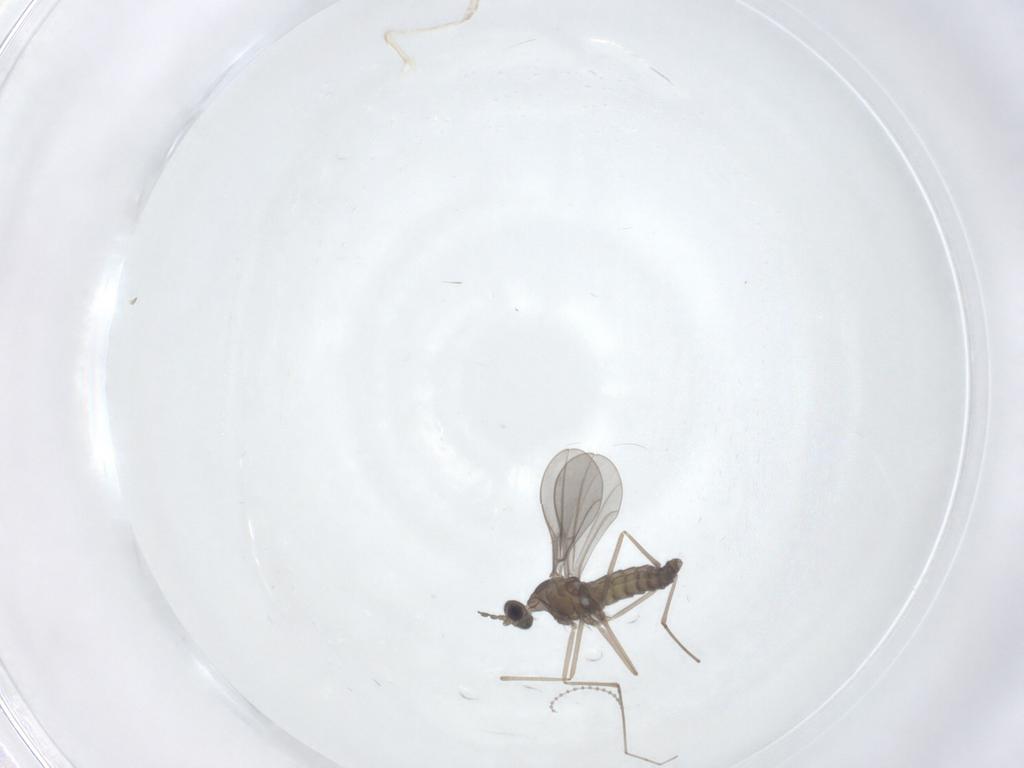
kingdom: Animalia
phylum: Arthropoda
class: Insecta
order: Diptera
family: Cecidomyiidae
